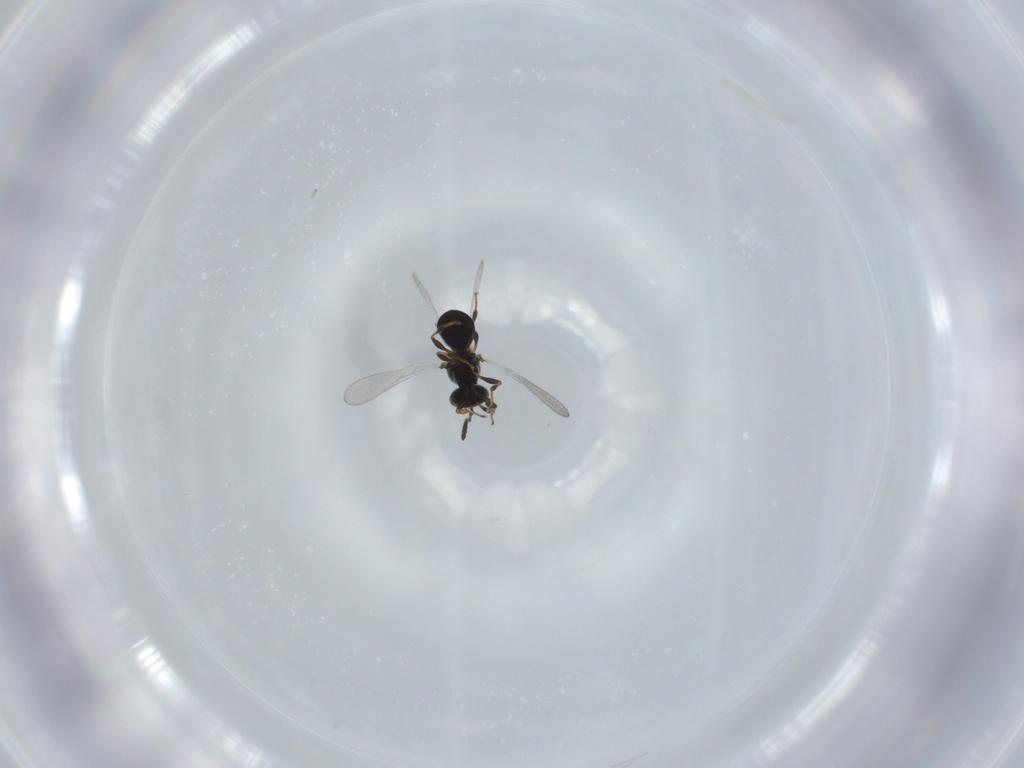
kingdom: Animalia
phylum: Arthropoda
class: Insecta
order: Hymenoptera
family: Platygastridae
